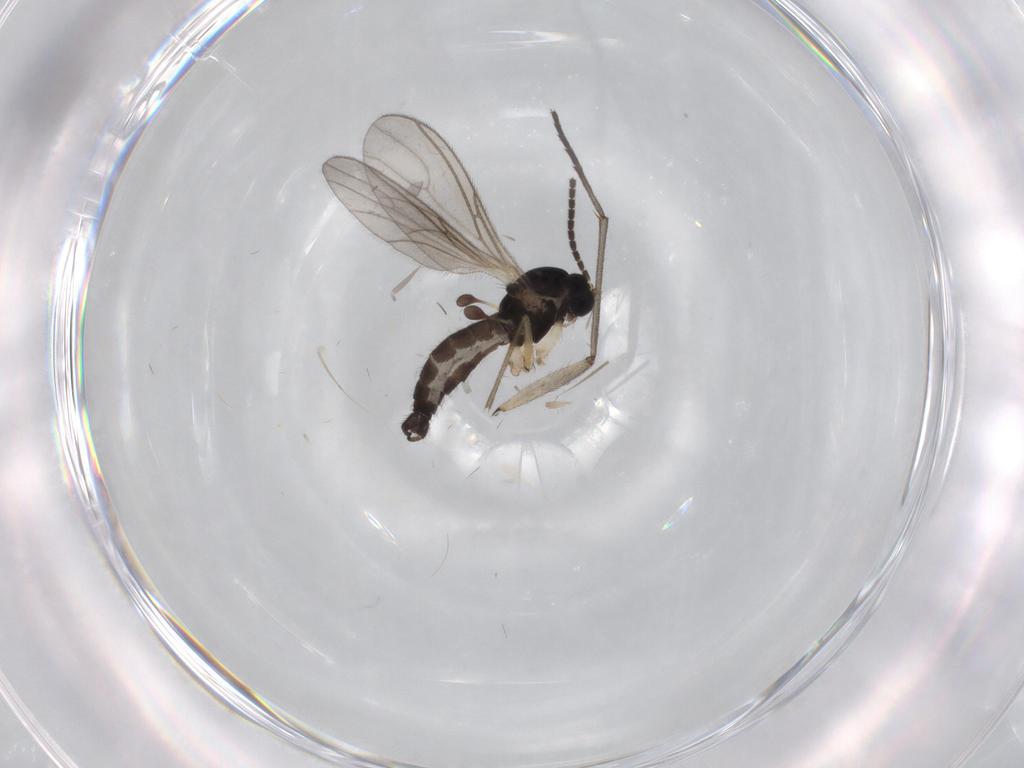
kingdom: Animalia
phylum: Arthropoda
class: Insecta
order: Diptera
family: Sciaridae
